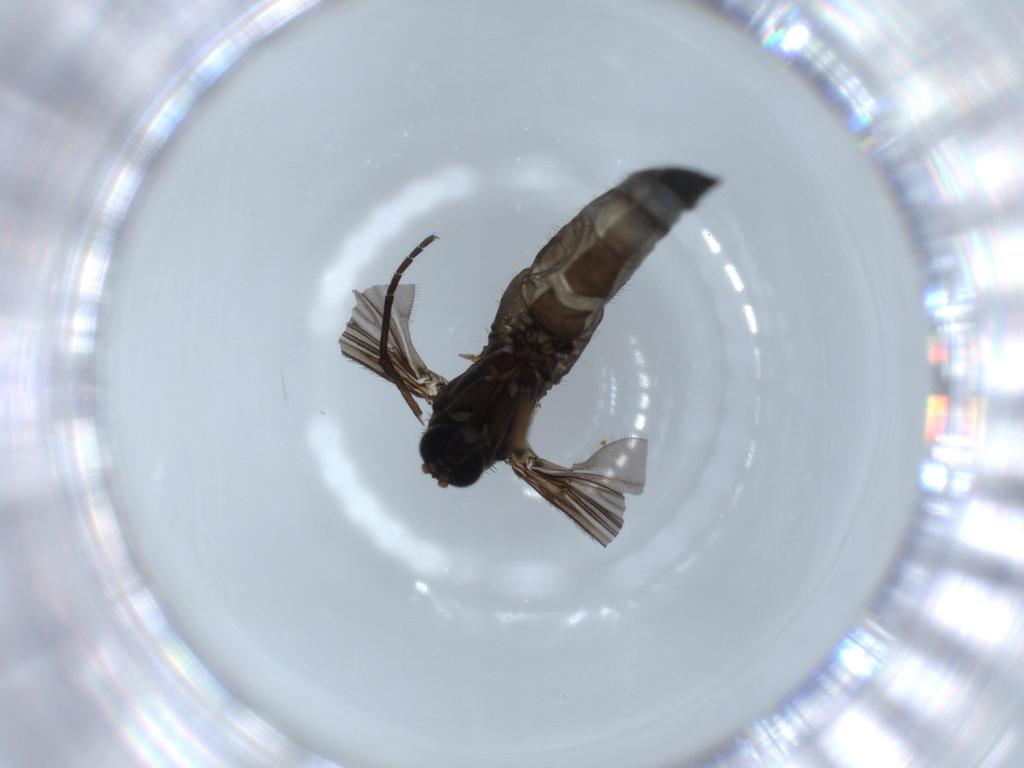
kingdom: Animalia
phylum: Arthropoda
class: Insecta
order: Diptera
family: Sciaridae
